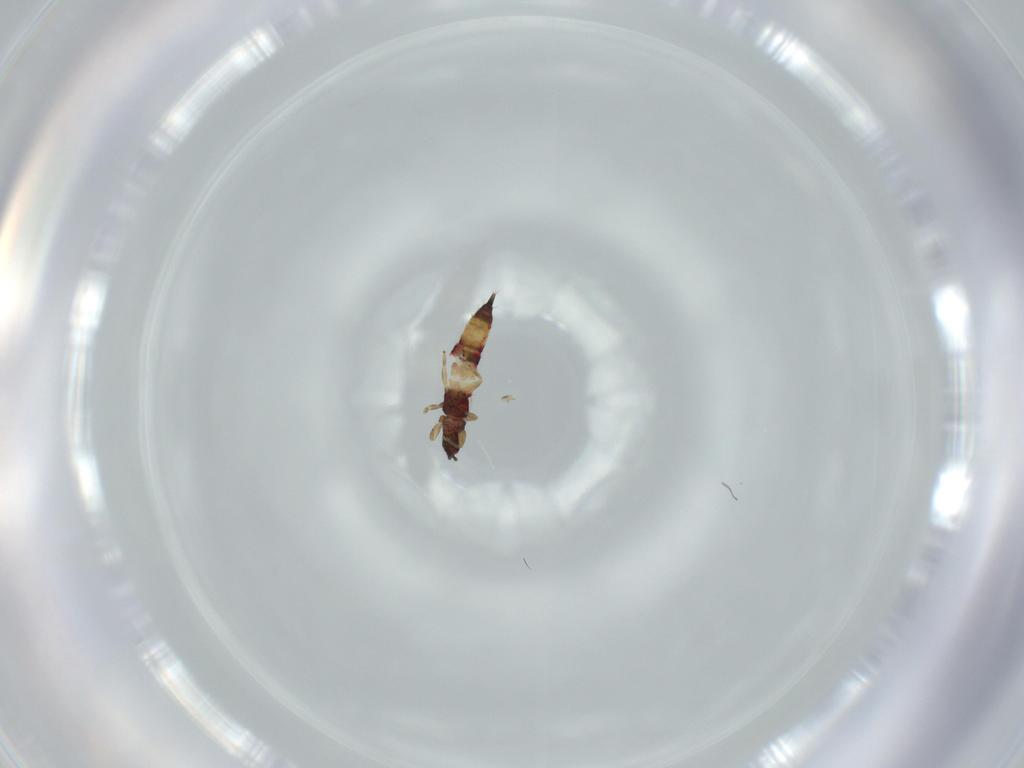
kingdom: Animalia
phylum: Arthropoda
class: Insecta
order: Thysanoptera
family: Phlaeothripidae
